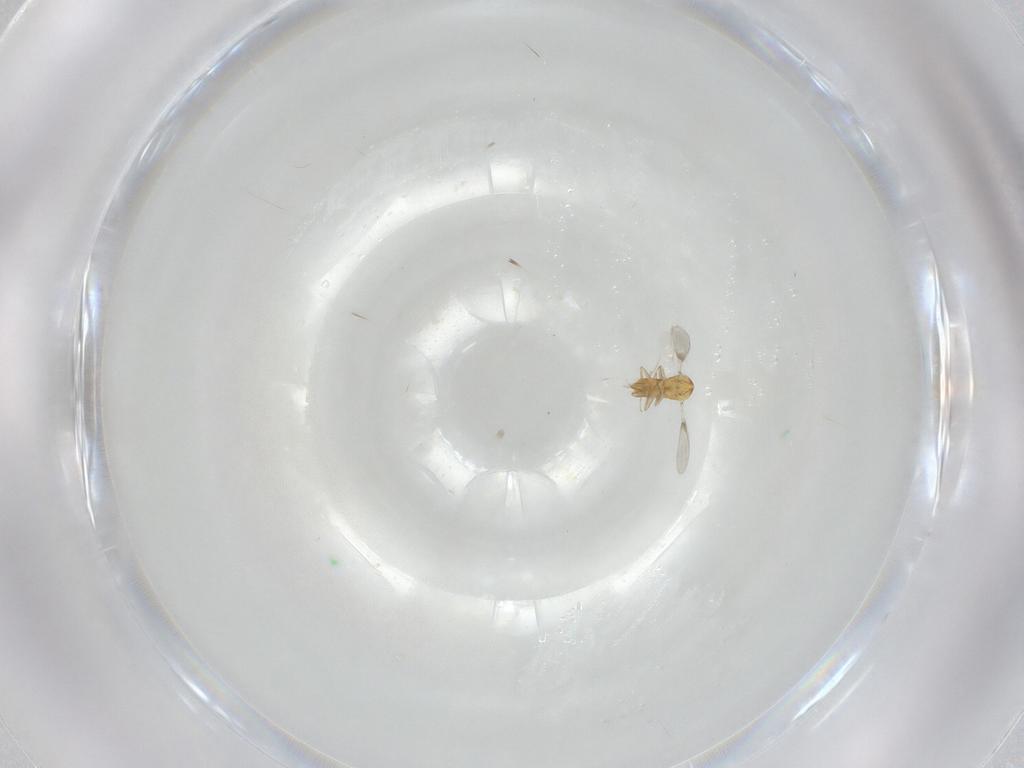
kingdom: Animalia
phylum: Arthropoda
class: Insecta
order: Hymenoptera
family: Aphelinidae
